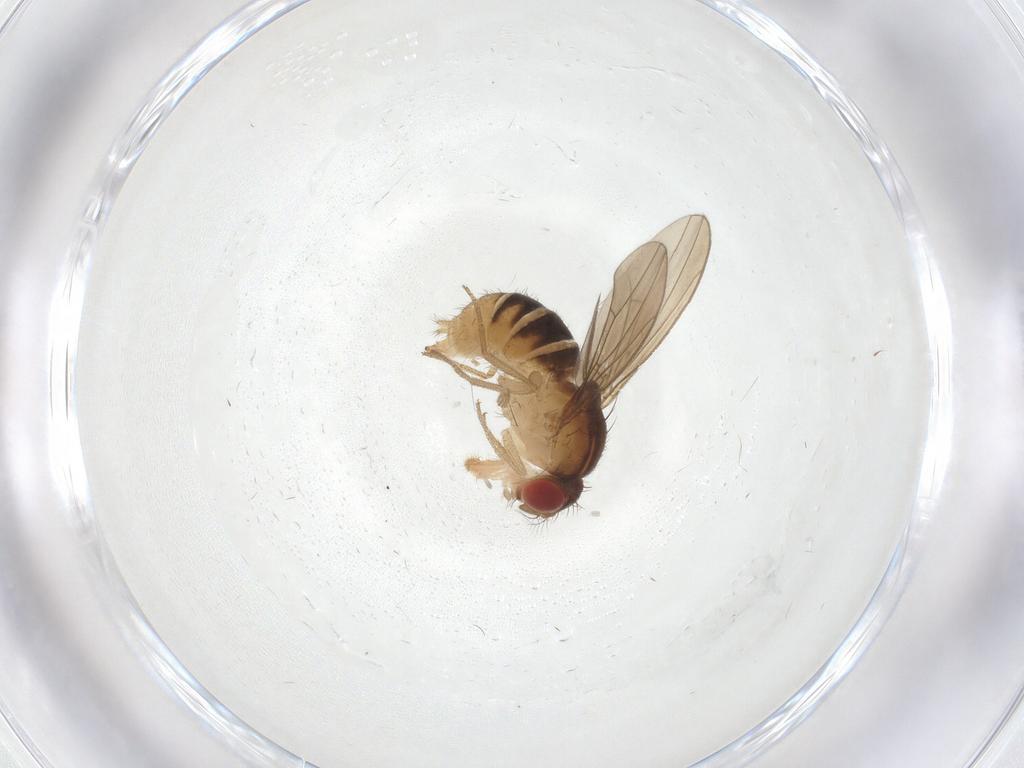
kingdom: Animalia
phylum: Arthropoda
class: Insecta
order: Diptera
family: Drosophilidae
